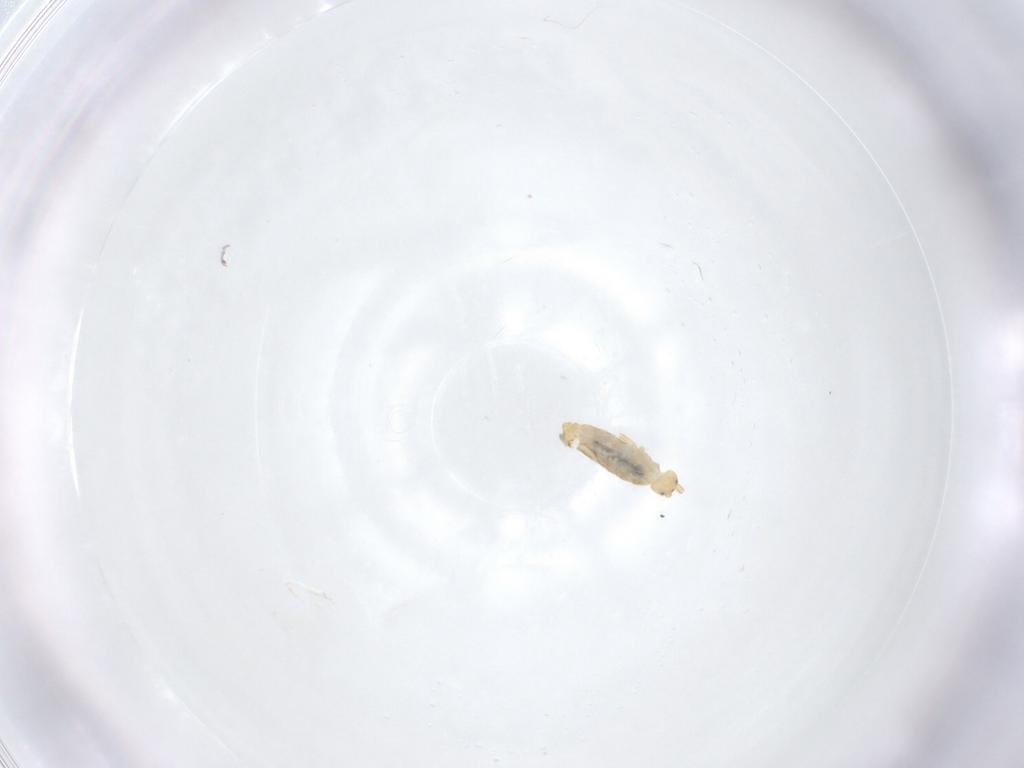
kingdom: Animalia
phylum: Arthropoda
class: Collembola
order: Entomobryomorpha
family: Entomobryidae
